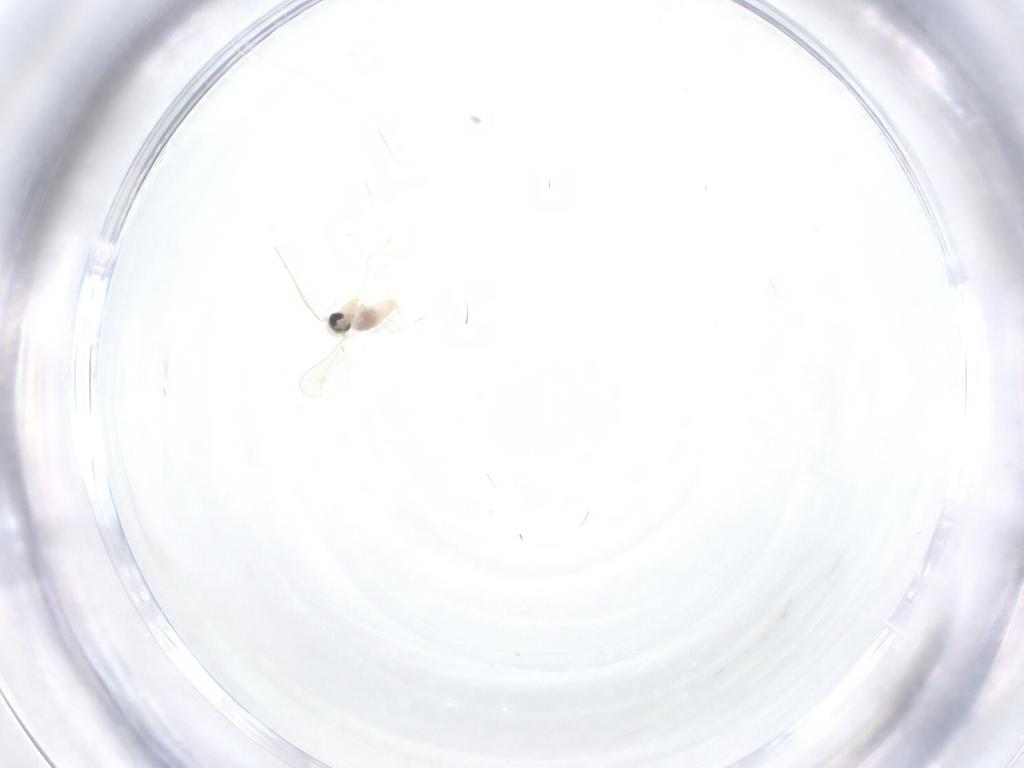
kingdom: Animalia
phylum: Arthropoda
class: Insecta
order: Diptera
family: Cecidomyiidae
